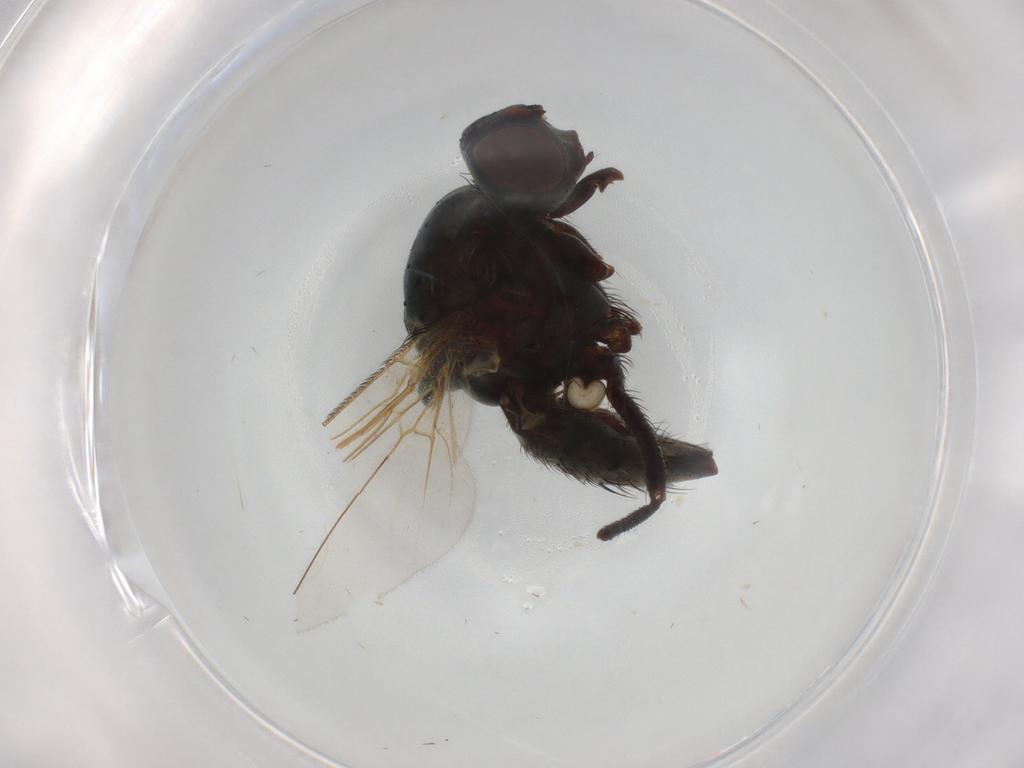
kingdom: Animalia
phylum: Arthropoda
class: Insecta
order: Diptera
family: Anthomyiidae
